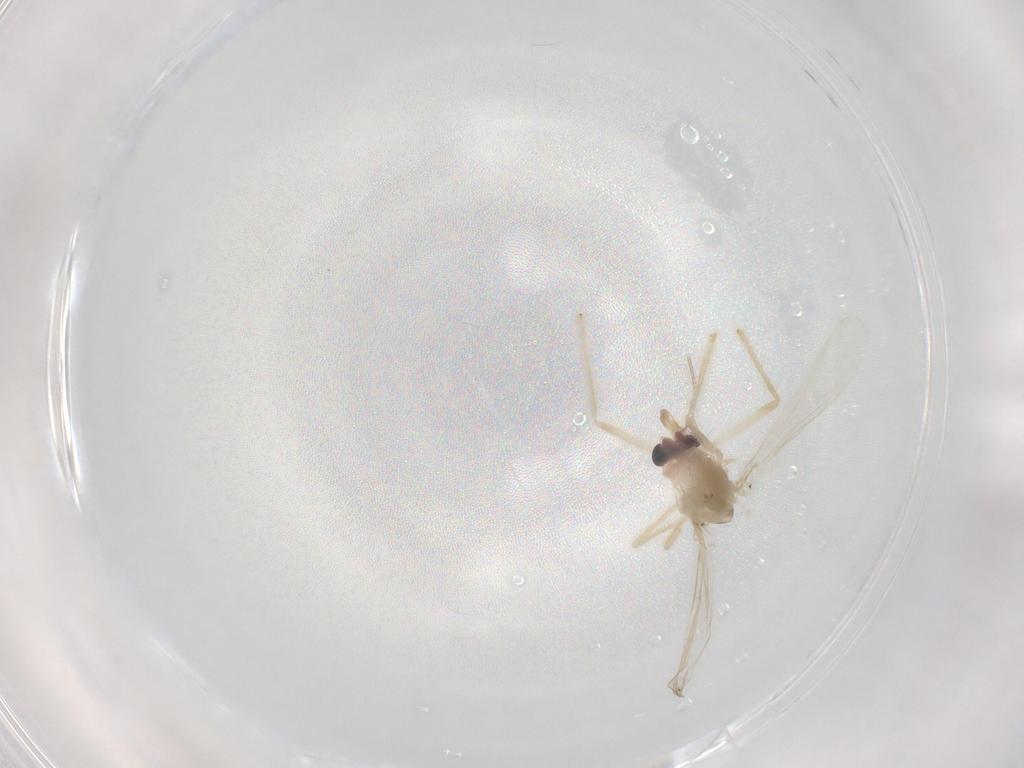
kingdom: Animalia
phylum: Arthropoda
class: Insecta
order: Diptera
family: Chironomidae
